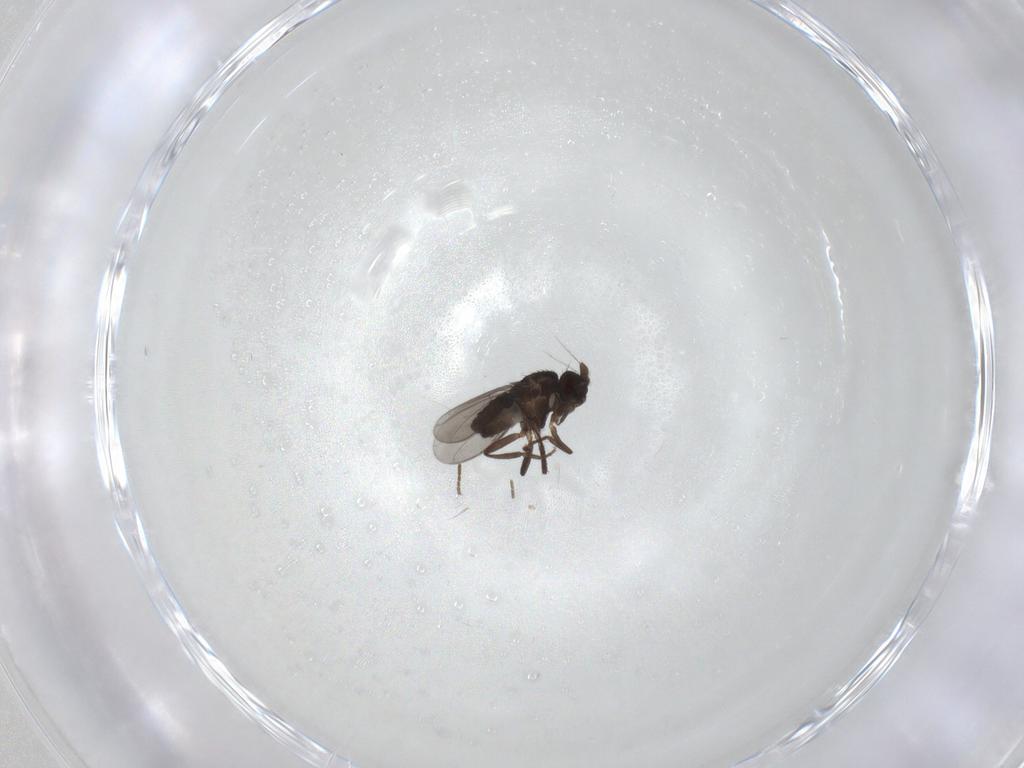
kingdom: Animalia
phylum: Arthropoda
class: Insecta
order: Diptera
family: Sphaeroceridae
